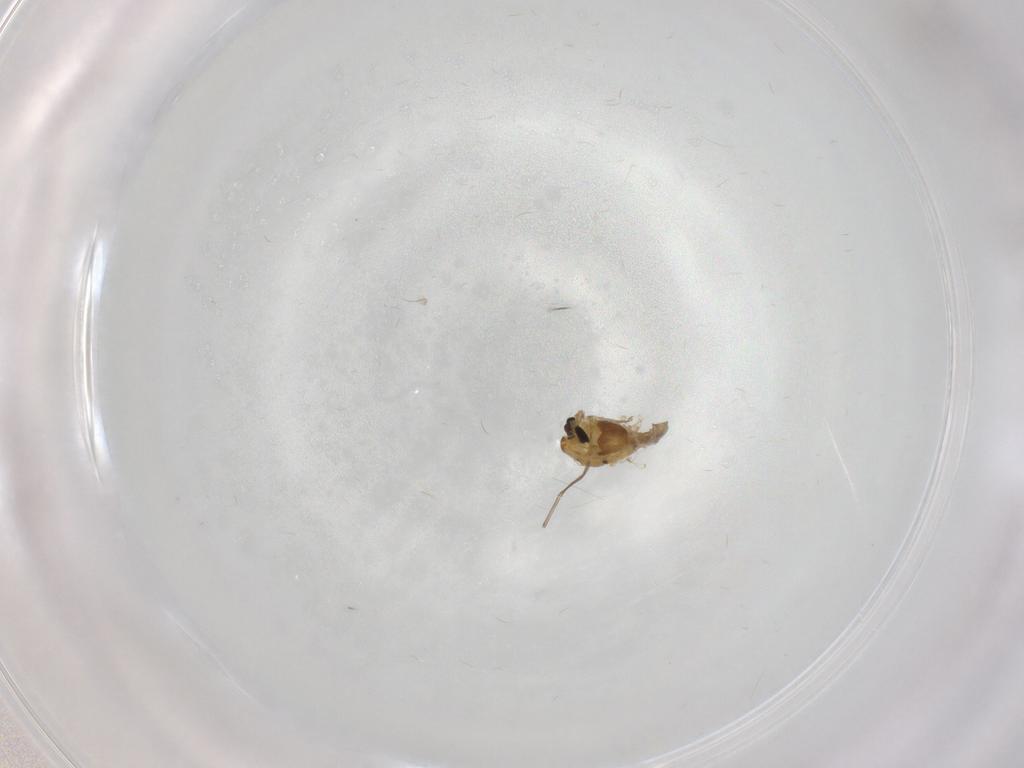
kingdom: Animalia
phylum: Arthropoda
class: Insecta
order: Diptera
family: Chironomidae
